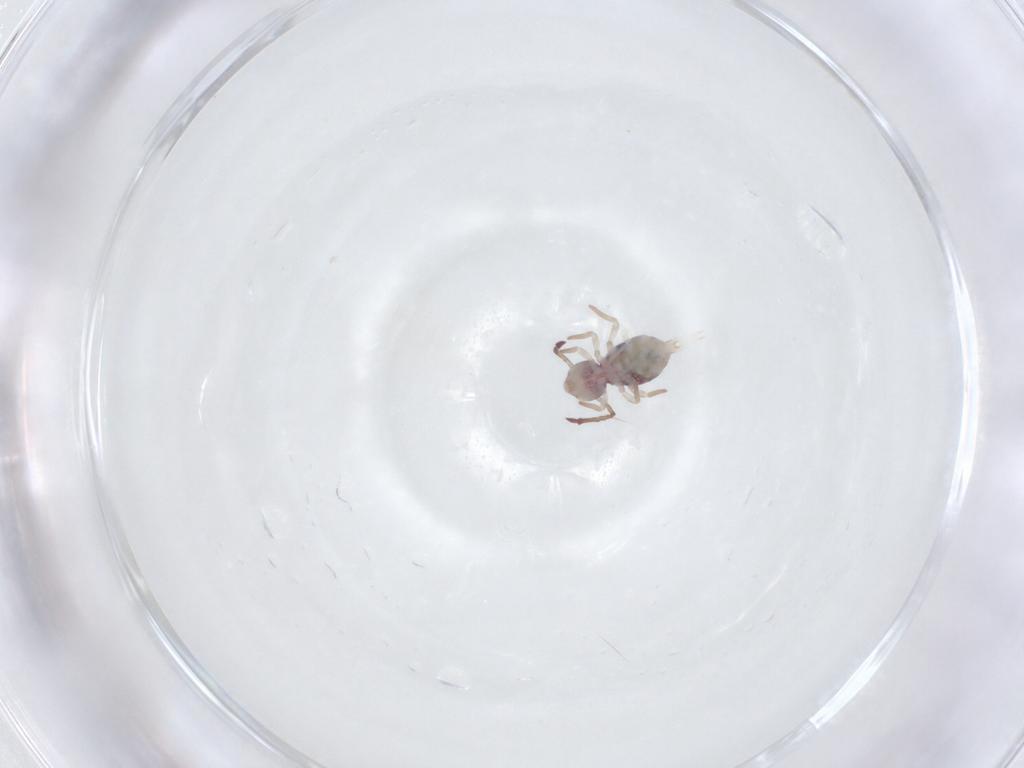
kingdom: Animalia
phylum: Arthropoda
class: Collembola
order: Symphypleona
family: Dicyrtomidae
